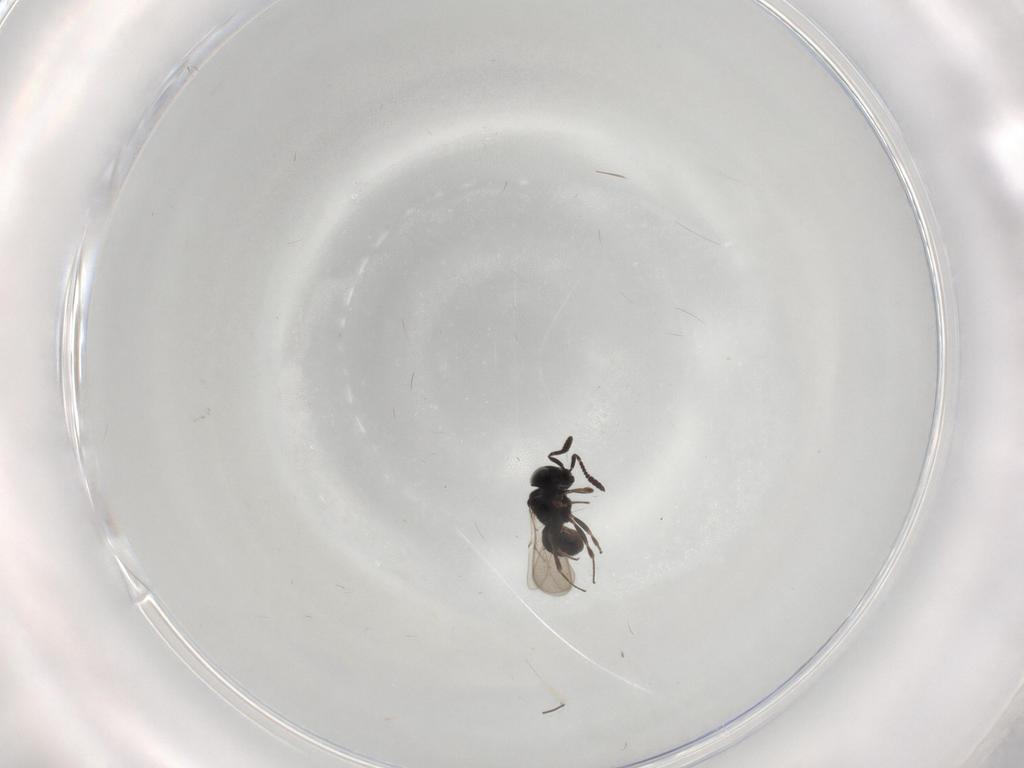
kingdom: Animalia
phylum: Arthropoda
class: Insecta
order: Hymenoptera
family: Scelionidae
